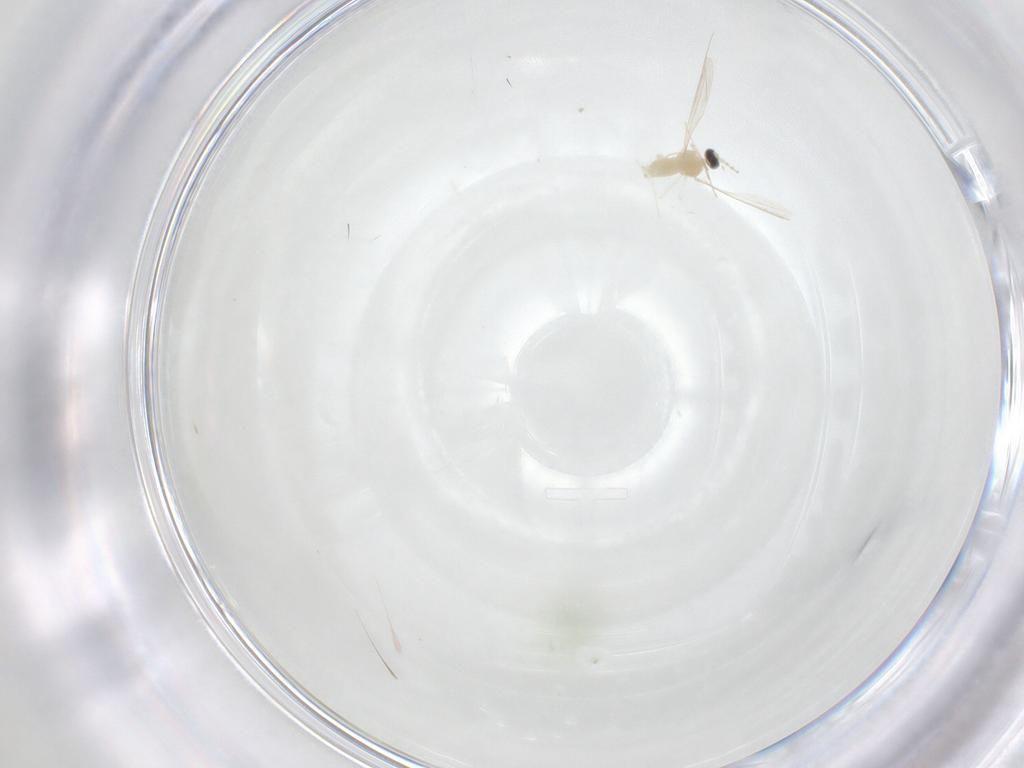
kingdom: Animalia
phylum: Arthropoda
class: Insecta
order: Diptera
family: Cecidomyiidae
